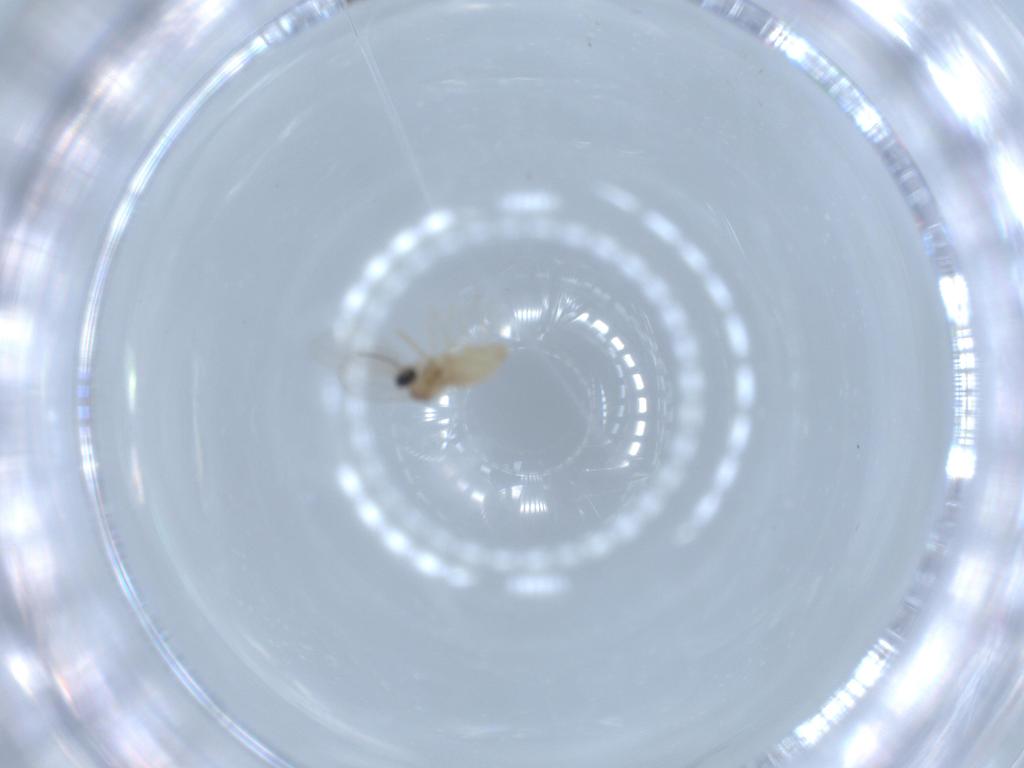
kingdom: Animalia
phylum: Arthropoda
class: Insecta
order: Diptera
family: Cecidomyiidae
